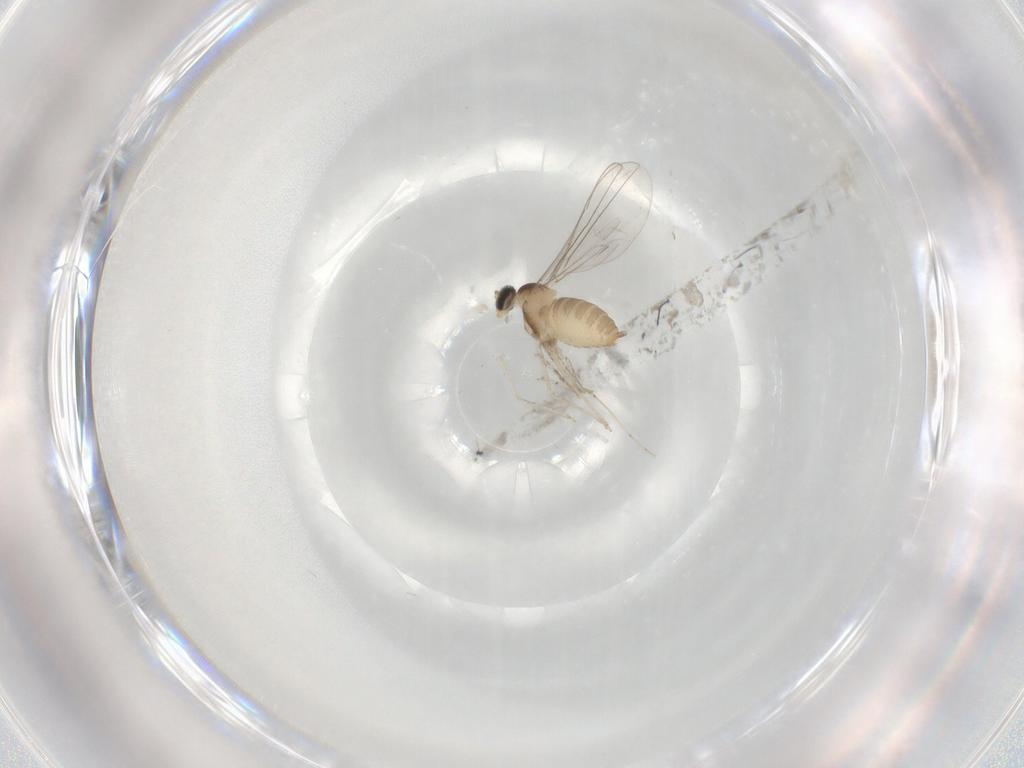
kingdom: Animalia
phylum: Arthropoda
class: Insecta
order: Diptera
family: Cecidomyiidae
